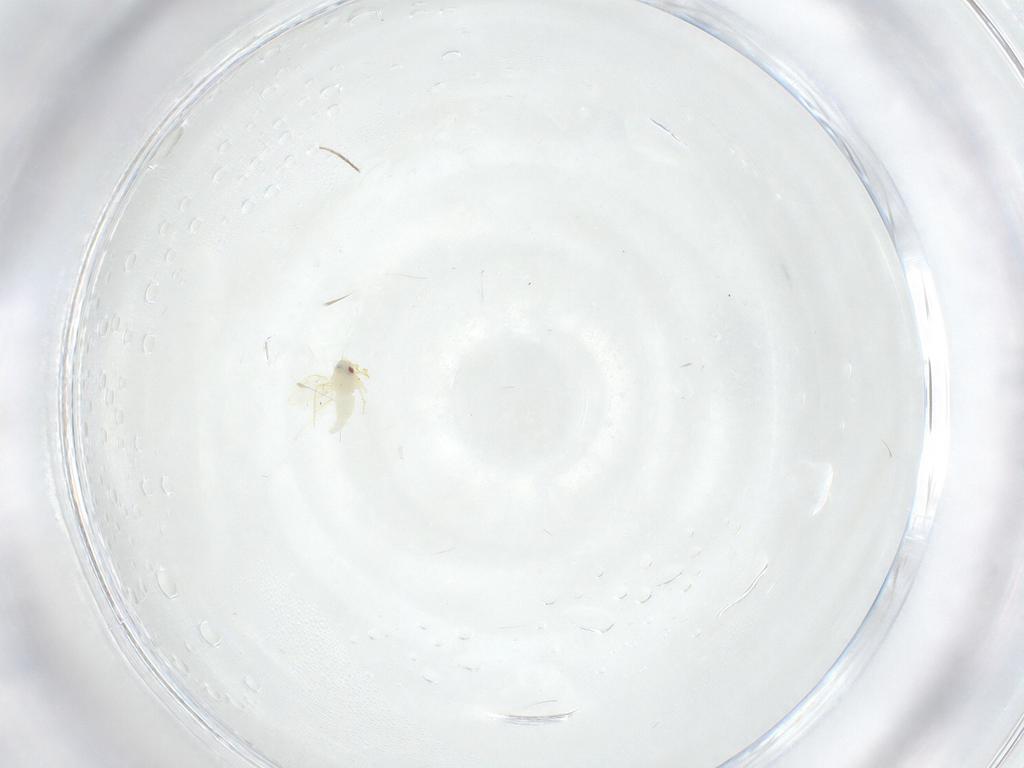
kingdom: Animalia
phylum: Arthropoda
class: Insecta
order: Hemiptera
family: Aleyrodidae
